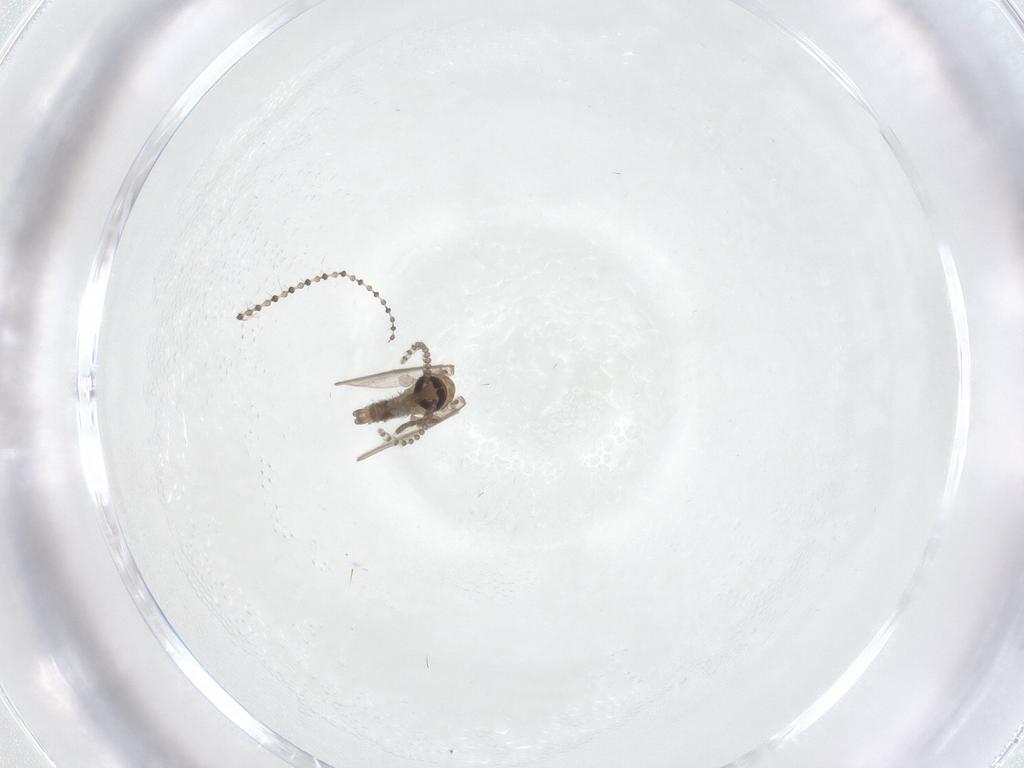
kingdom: Animalia
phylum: Arthropoda
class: Insecta
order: Diptera
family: Psychodidae
